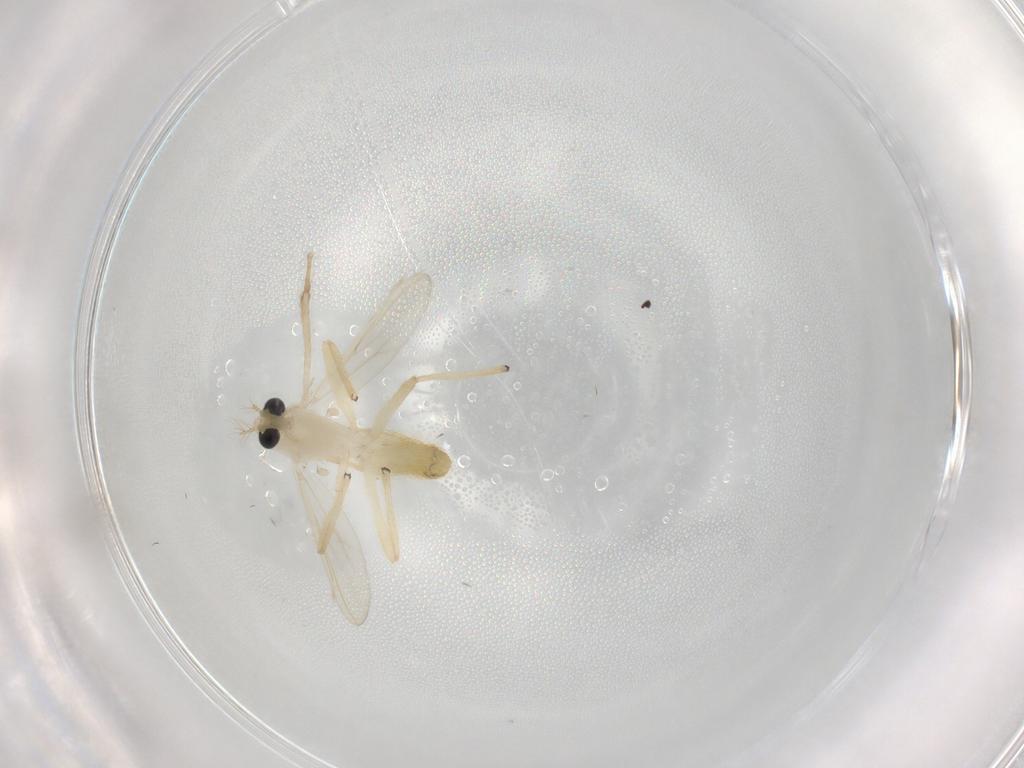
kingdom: Animalia
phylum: Arthropoda
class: Insecta
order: Diptera
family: Chironomidae
